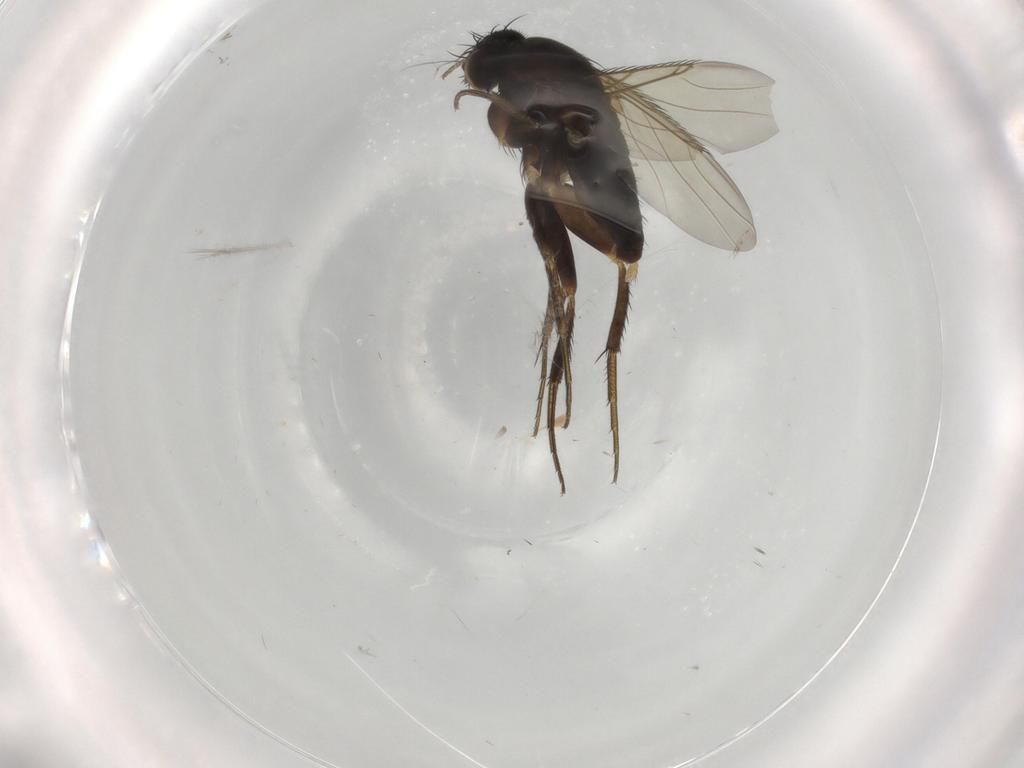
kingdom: Animalia
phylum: Arthropoda
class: Insecta
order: Diptera
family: Phoridae
